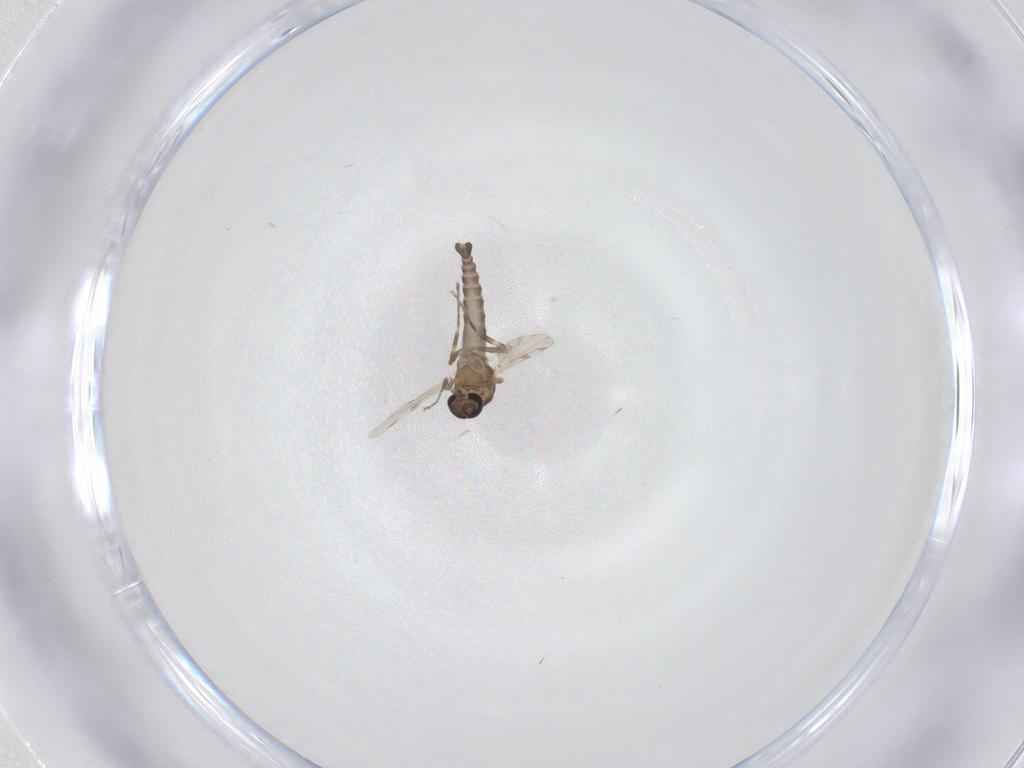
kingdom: Animalia
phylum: Arthropoda
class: Insecta
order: Diptera
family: Ceratopogonidae
